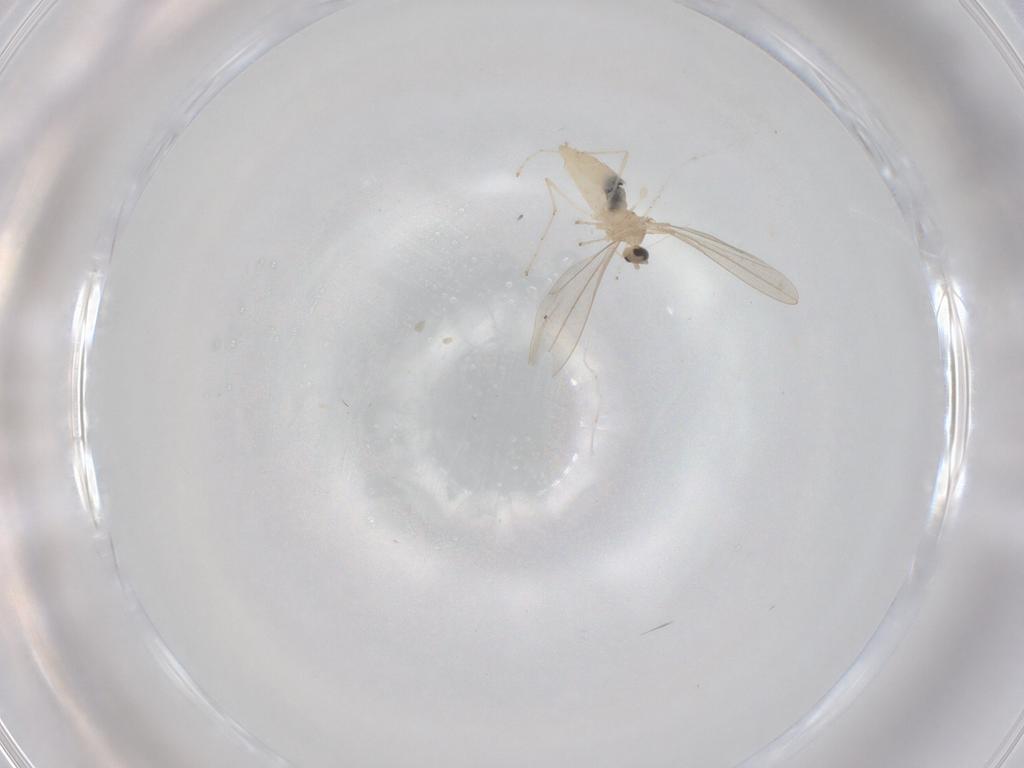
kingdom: Animalia
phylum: Arthropoda
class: Insecta
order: Diptera
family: Cecidomyiidae
